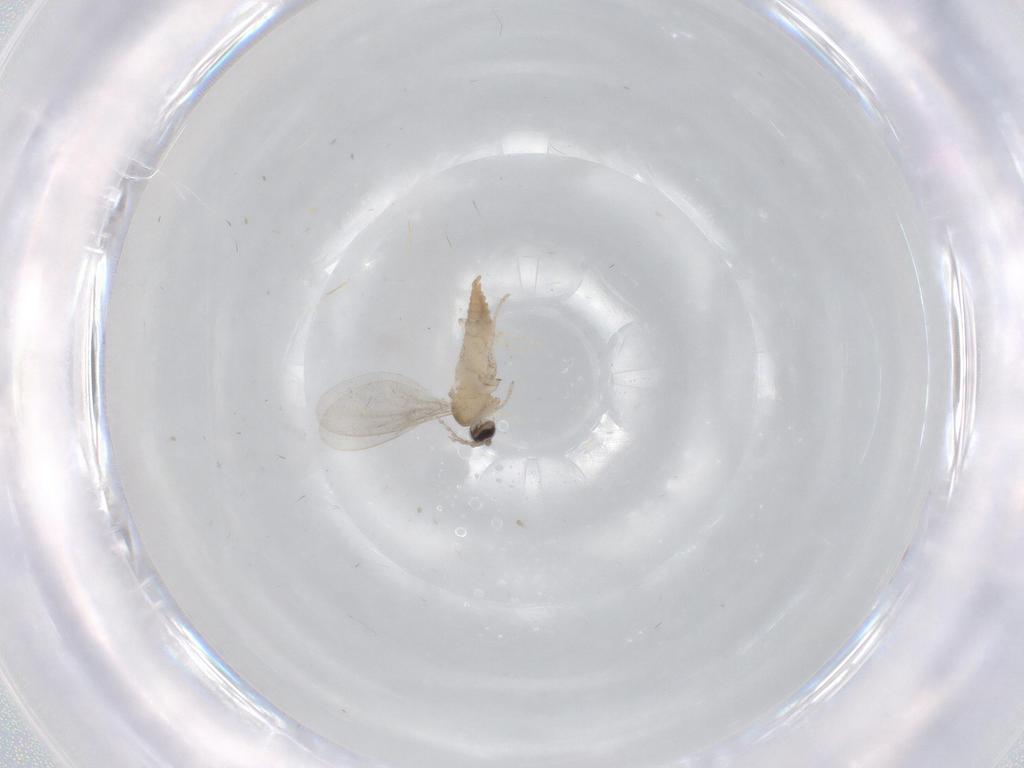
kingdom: Animalia
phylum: Arthropoda
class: Insecta
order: Diptera
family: Cecidomyiidae
